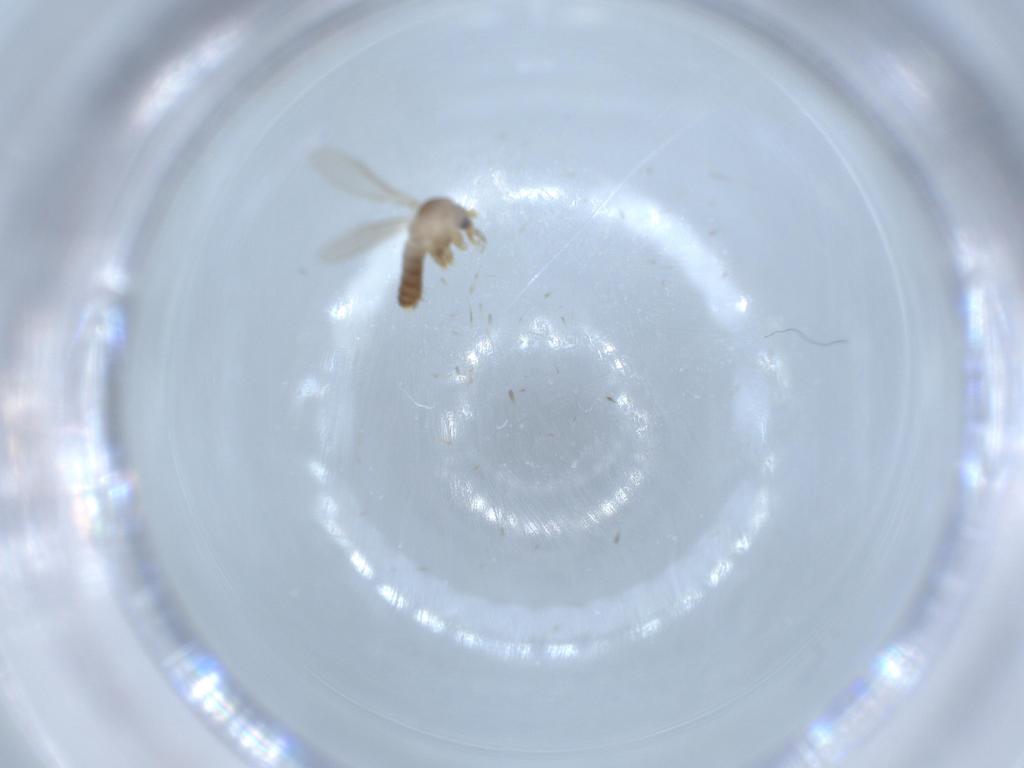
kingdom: Animalia
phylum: Arthropoda
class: Insecta
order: Diptera
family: Psychodidae
